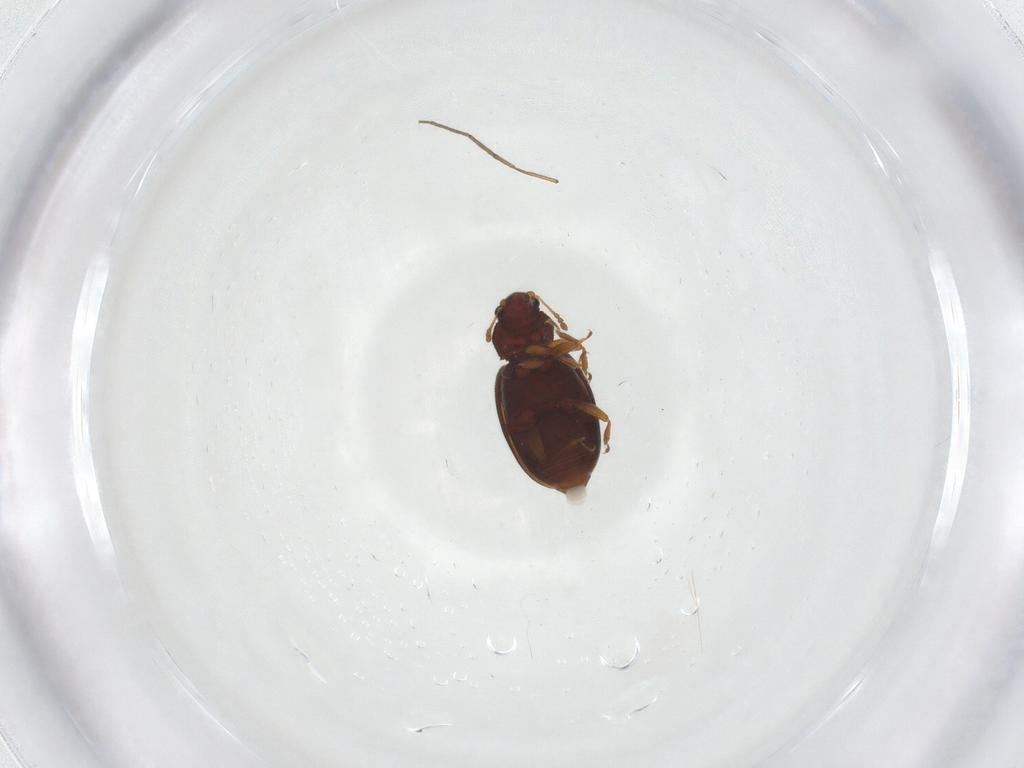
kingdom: Animalia
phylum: Arthropoda
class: Insecta
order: Coleoptera
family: Latridiidae
